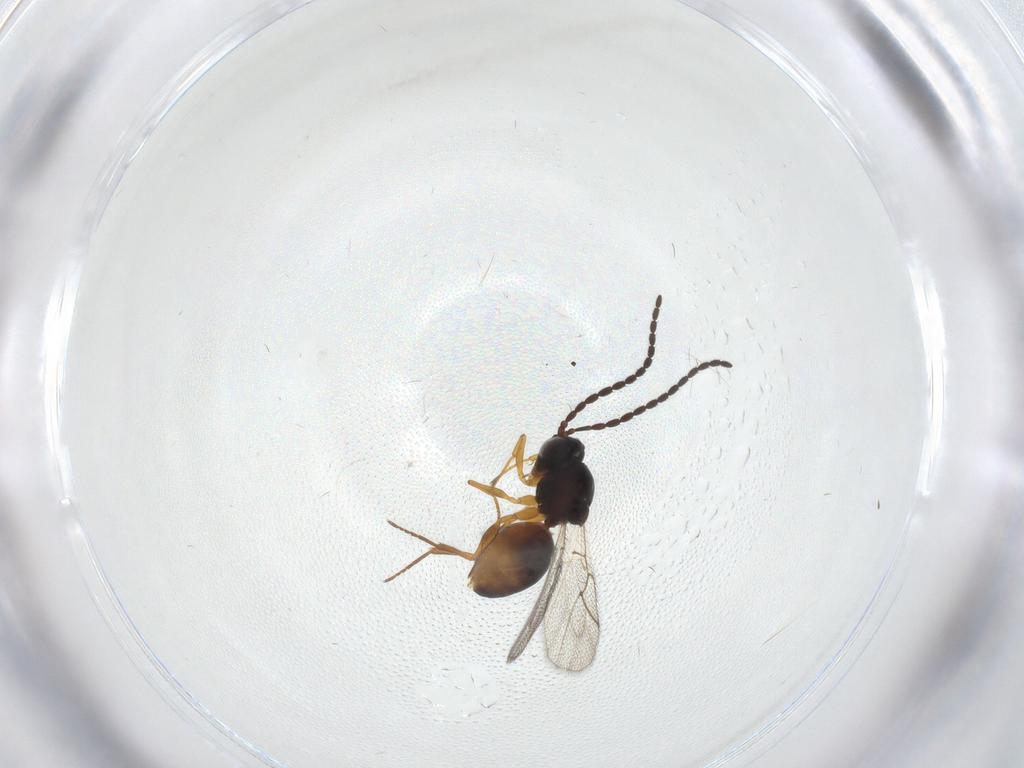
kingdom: Animalia
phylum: Arthropoda
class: Insecta
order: Hymenoptera
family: Figitidae
